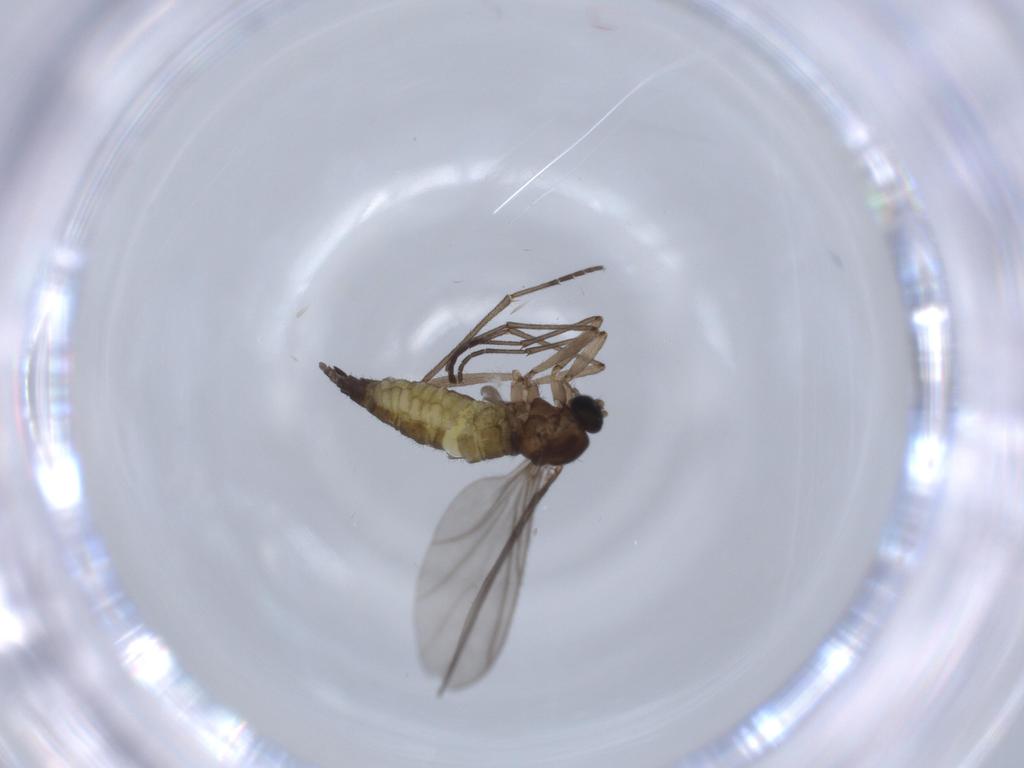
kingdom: Animalia
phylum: Arthropoda
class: Insecta
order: Diptera
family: Sciaridae
